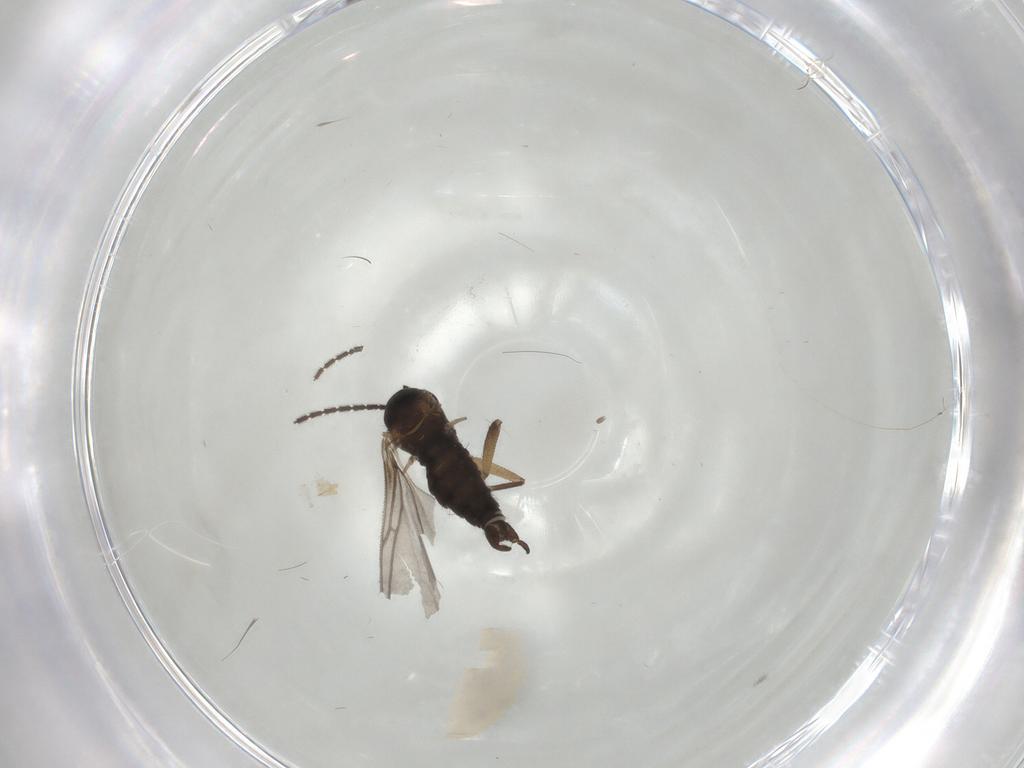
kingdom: Animalia
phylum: Arthropoda
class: Insecta
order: Diptera
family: Sciaridae
